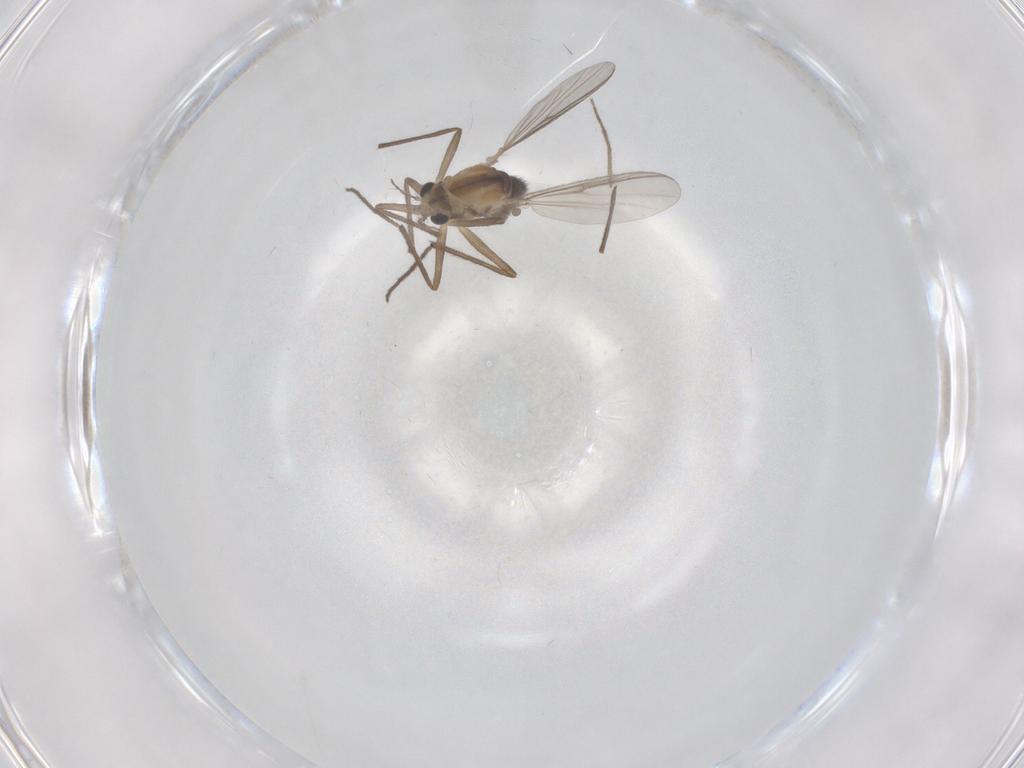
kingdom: Animalia
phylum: Arthropoda
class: Insecta
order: Diptera
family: Chironomidae
